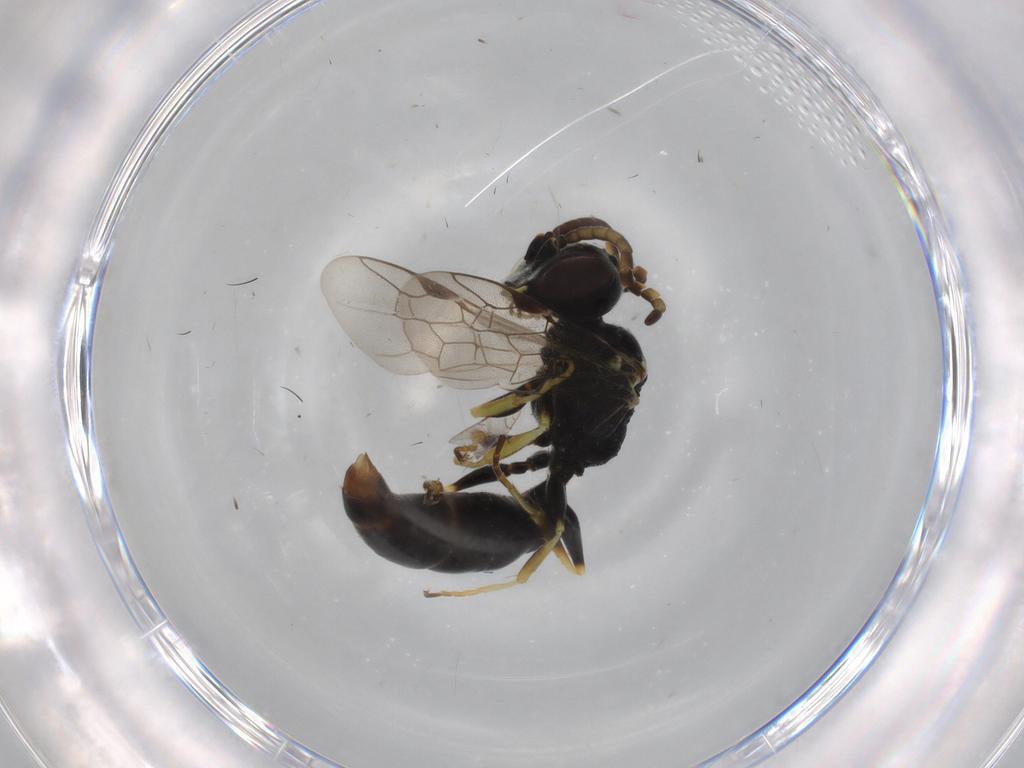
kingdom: Animalia
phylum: Arthropoda
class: Insecta
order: Hymenoptera
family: Crabronidae
